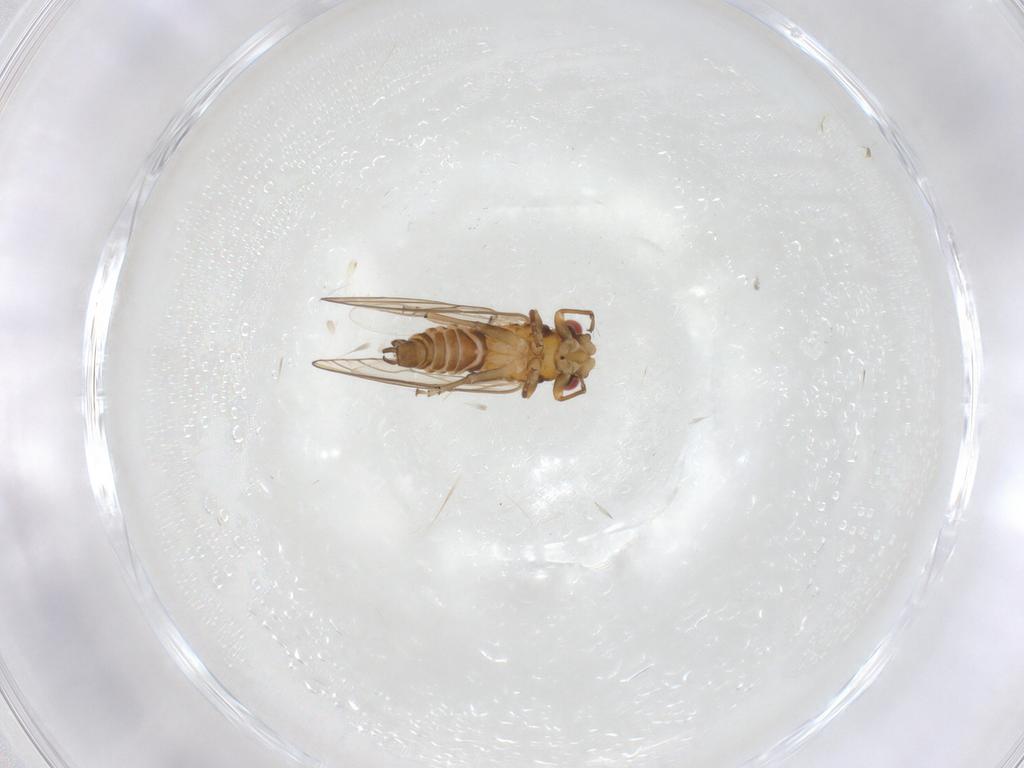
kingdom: Animalia
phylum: Arthropoda
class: Insecta
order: Hemiptera
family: Psyllidae
